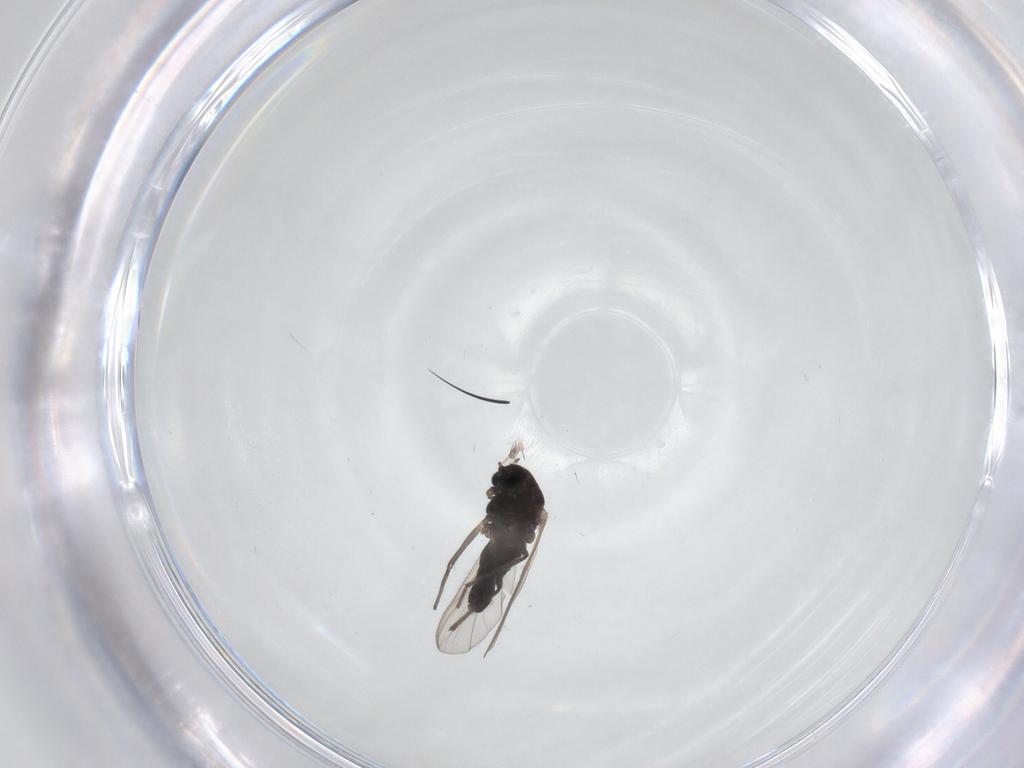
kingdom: Animalia
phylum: Arthropoda
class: Insecta
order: Diptera
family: Chironomidae
